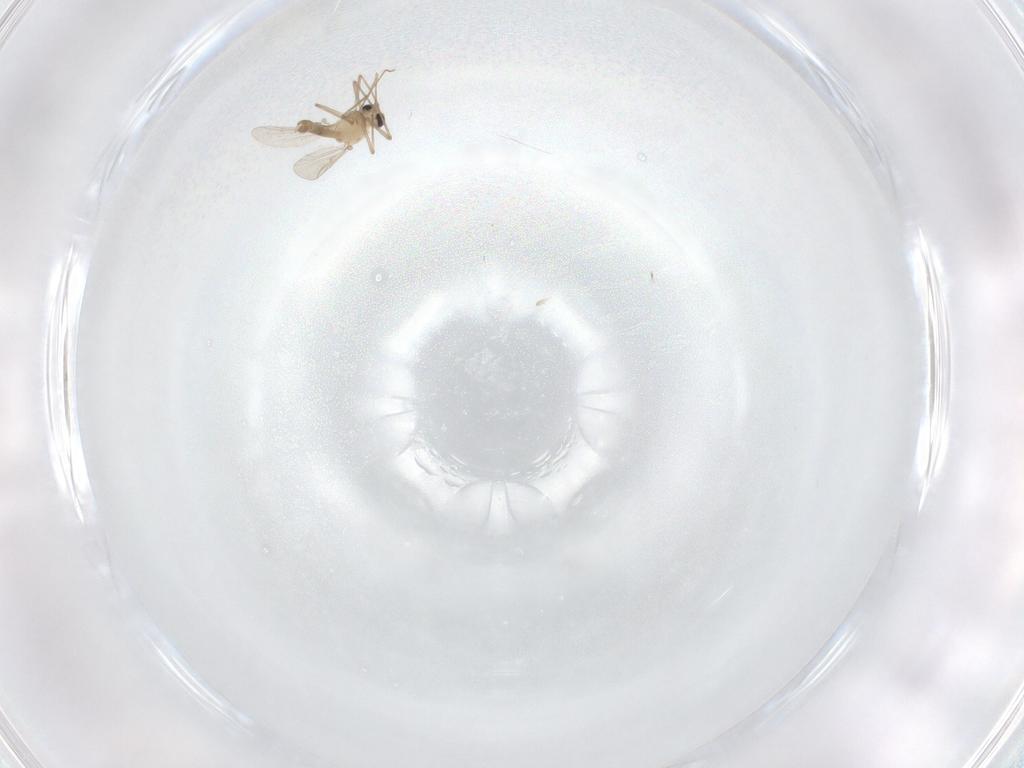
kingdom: Animalia
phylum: Arthropoda
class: Insecta
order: Diptera
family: Chironomidae
